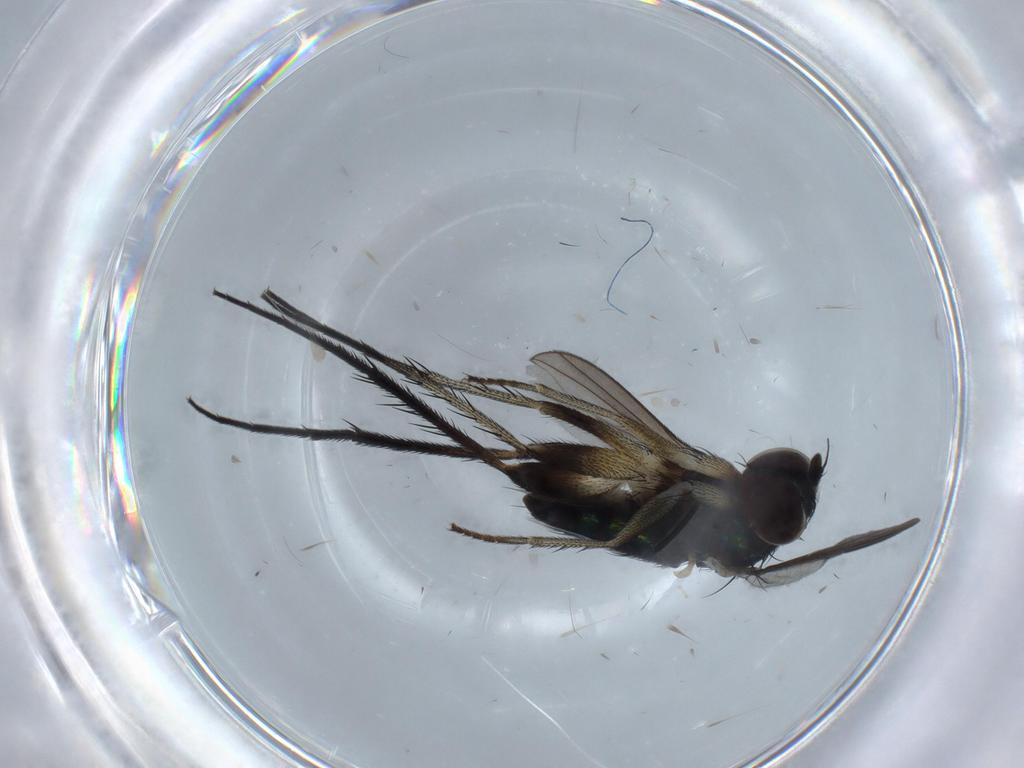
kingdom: Animalia
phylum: Arthropoda
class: Insecta
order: Diptera
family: Dolichopodidae
